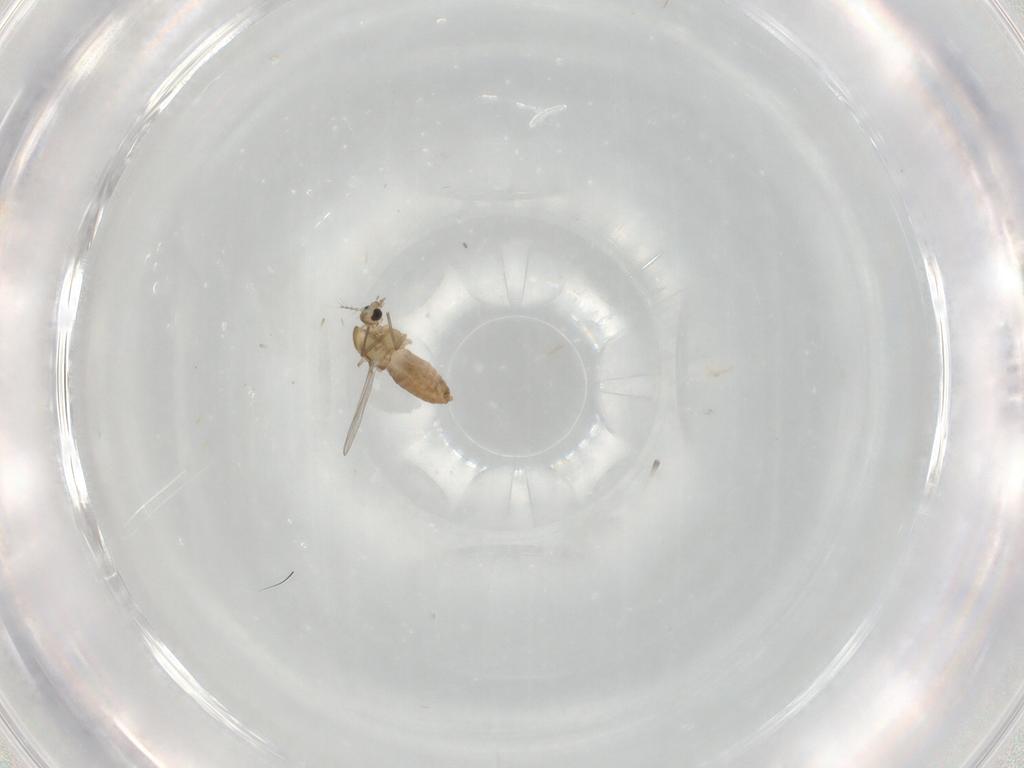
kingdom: Animalia
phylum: Arthropoda
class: Insecta
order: Diptera
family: Chironomidae
